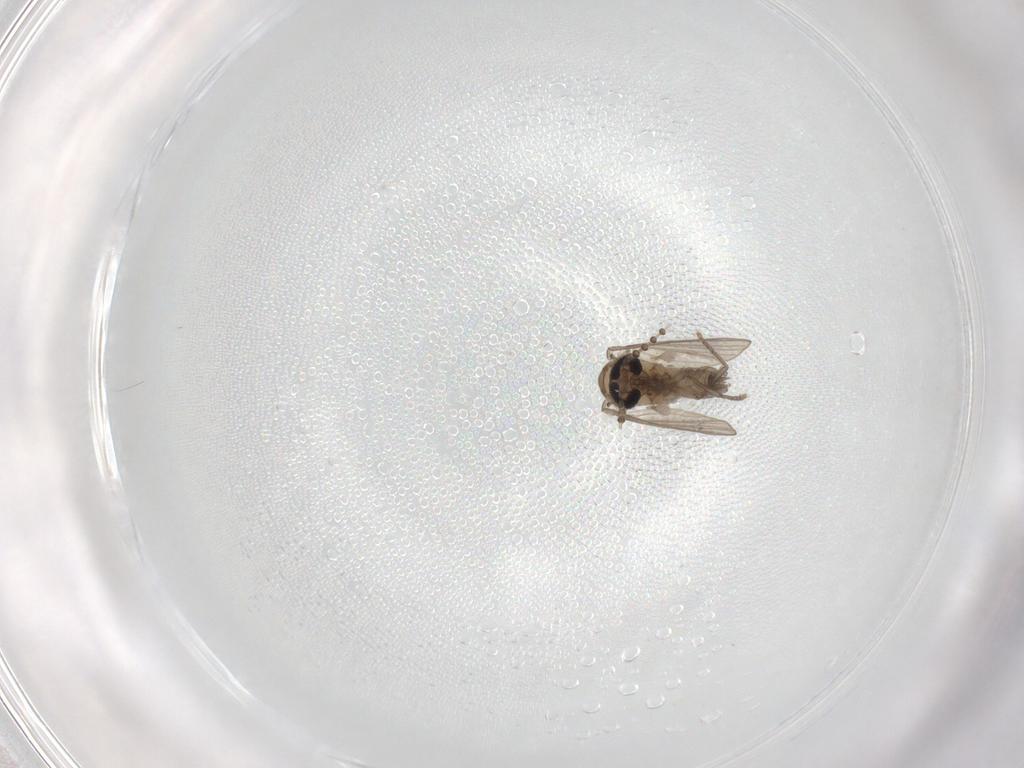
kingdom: Animalia
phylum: Arthropoda
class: Insecta
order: Diptera
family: Psychodidae
